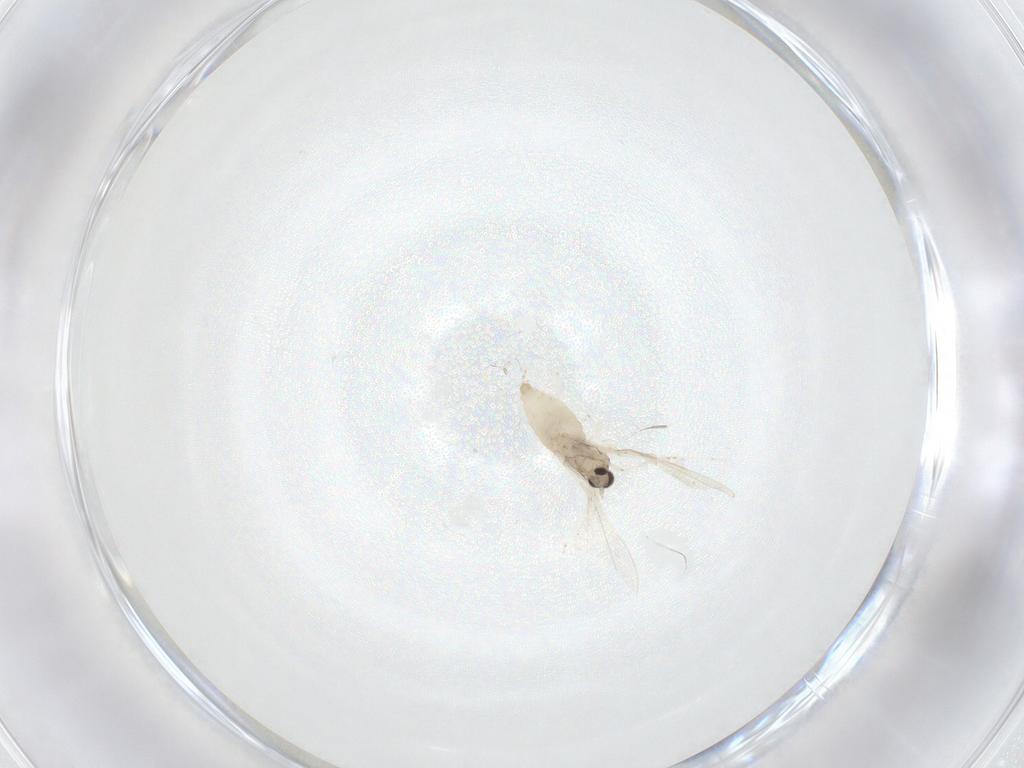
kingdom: Animalia
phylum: Arthropoda
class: Insecta
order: Diptera
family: Cecidomyiidae
